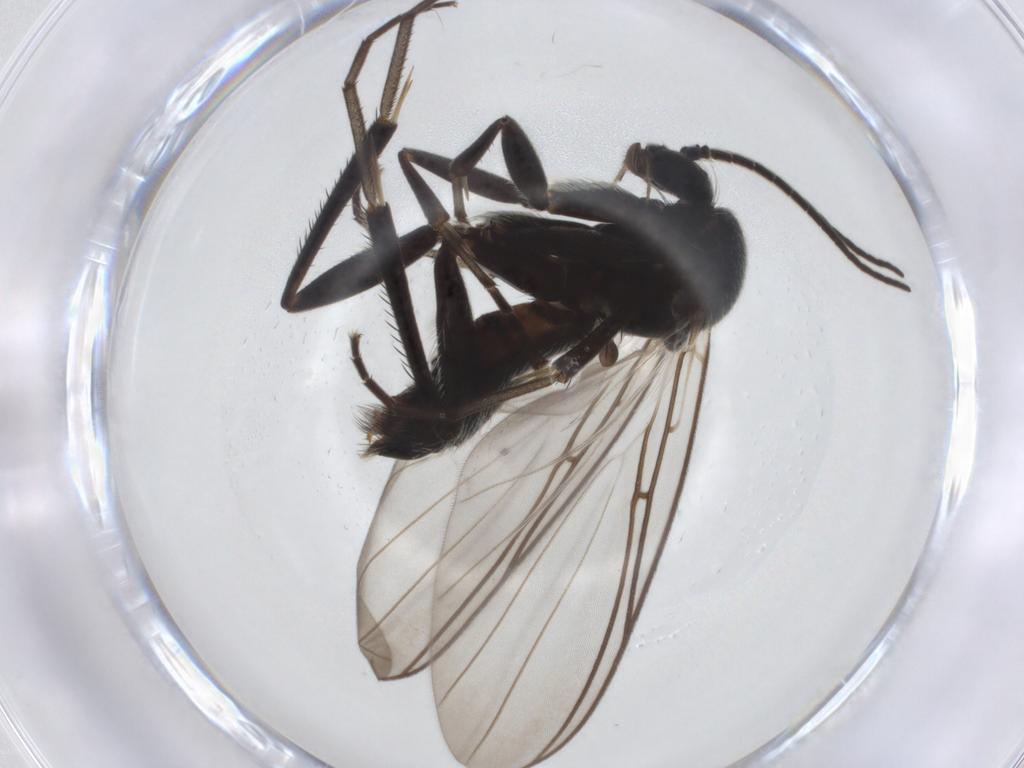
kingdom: Animalia
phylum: Arthropoda
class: Insecta
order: Diptera
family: Mycetophilidae
